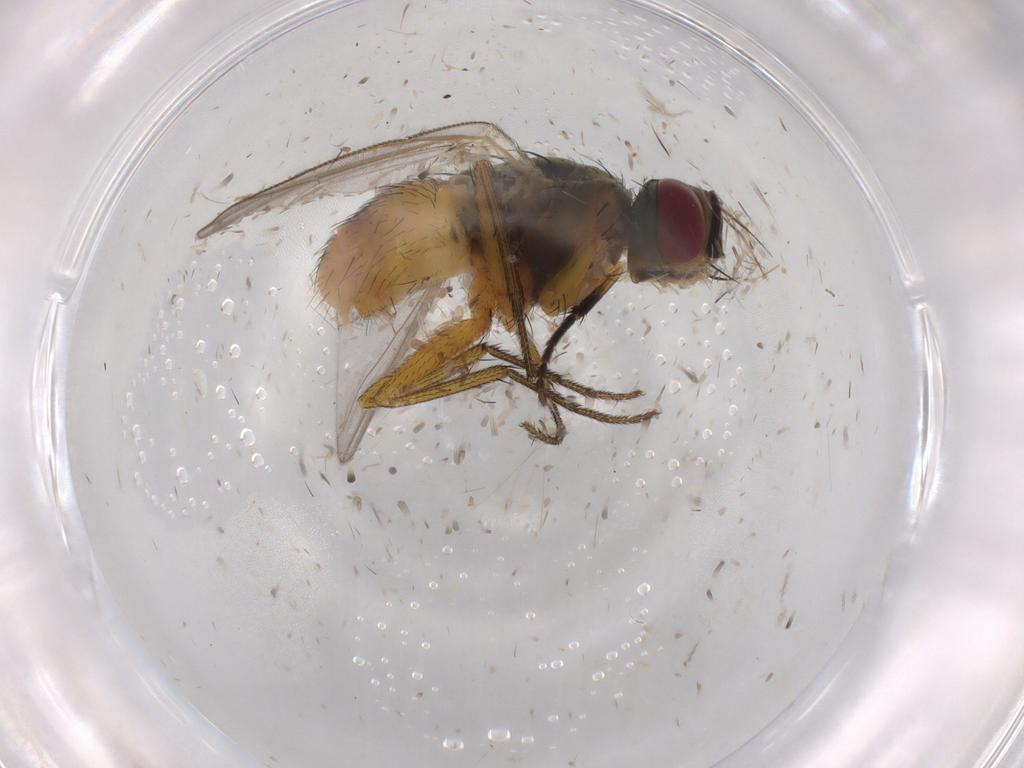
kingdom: Animalia
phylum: Arthropoda
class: Insecta
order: Diptera
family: Muscidae
